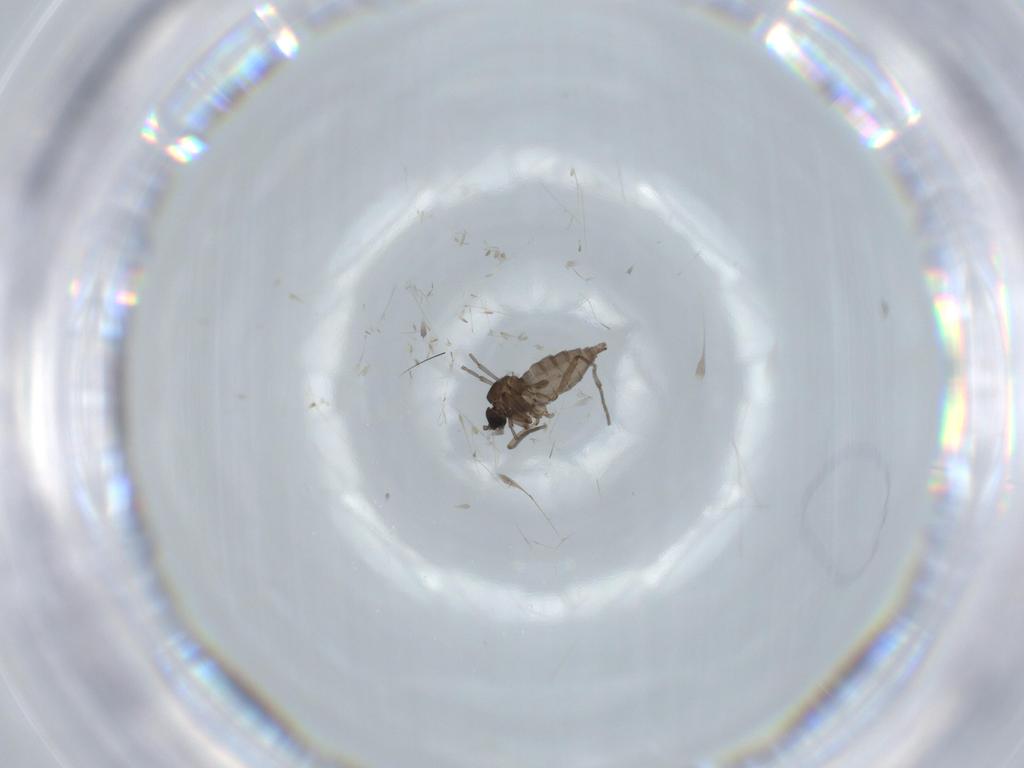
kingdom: Animalia
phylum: Arthropoda
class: Insecta
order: Diptera
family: Sciaridae
